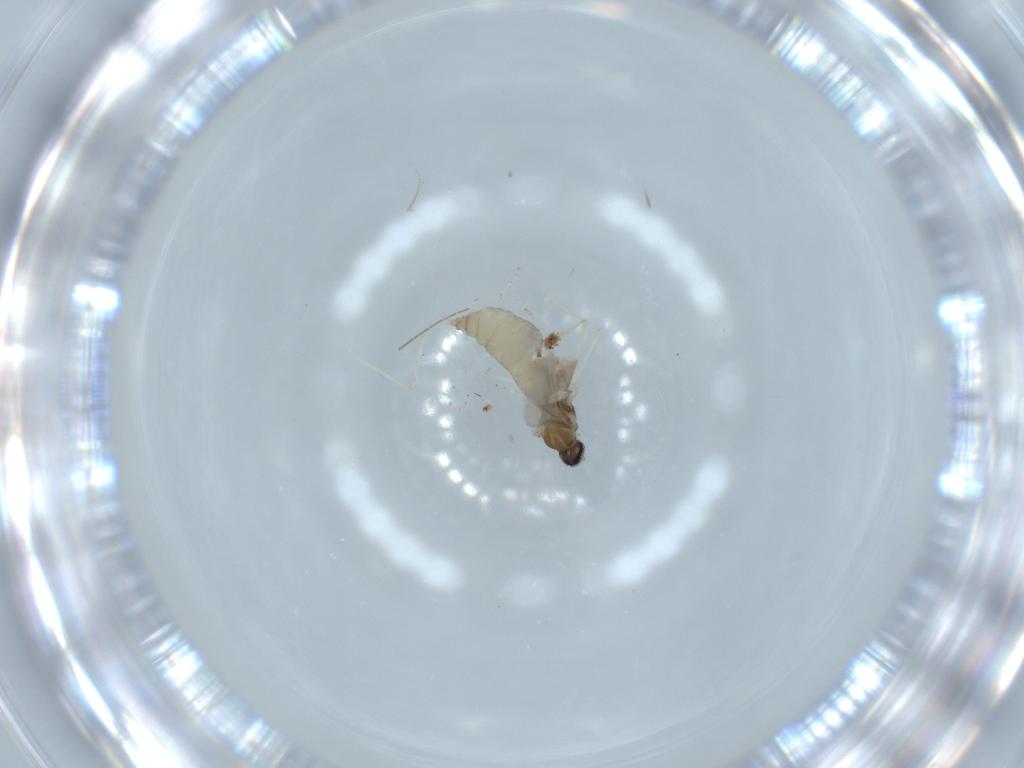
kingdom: Animalia
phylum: Arthropoda
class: Insecta
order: Diptera
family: Cecidomyiidae
